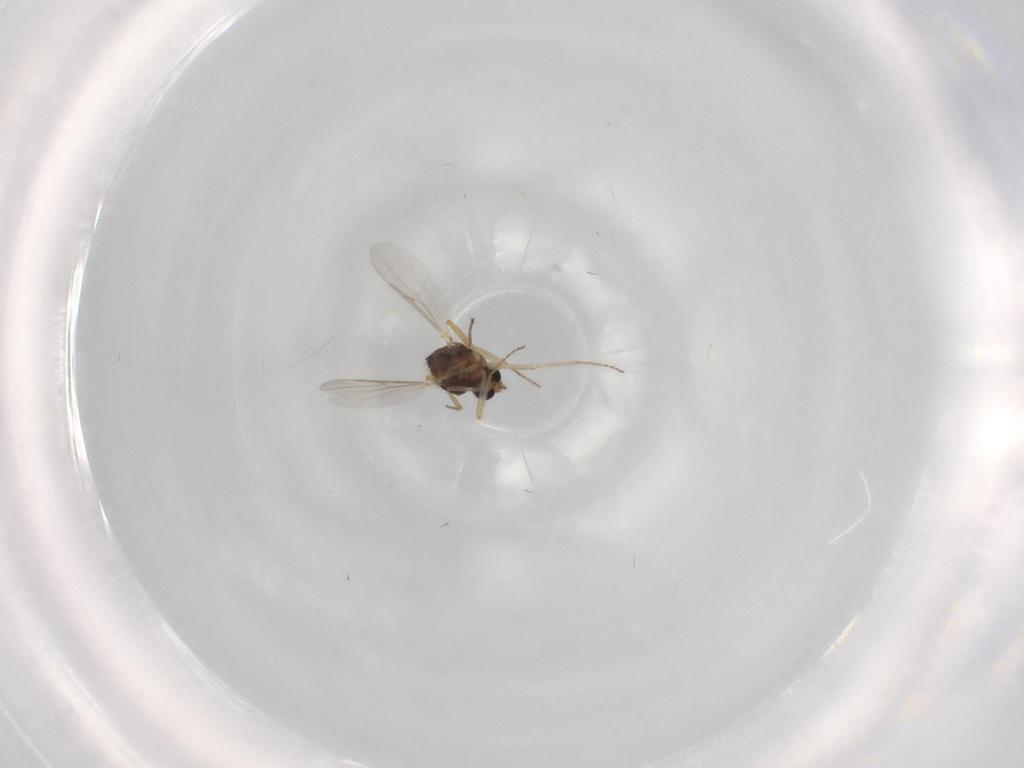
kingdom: Animalia
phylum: Arthropoda
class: Insecta
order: Diptera
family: Ceratopogonidae
